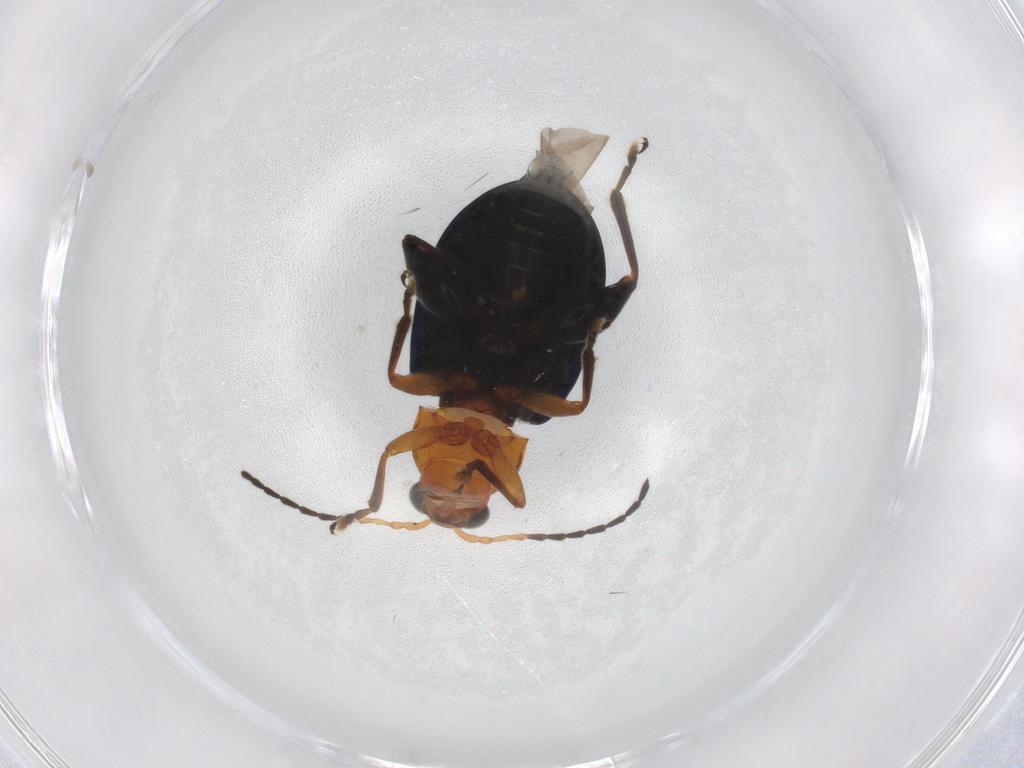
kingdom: Animalia
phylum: Arthropoda
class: Insecta
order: Coleoptera
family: Chrysomelidae
